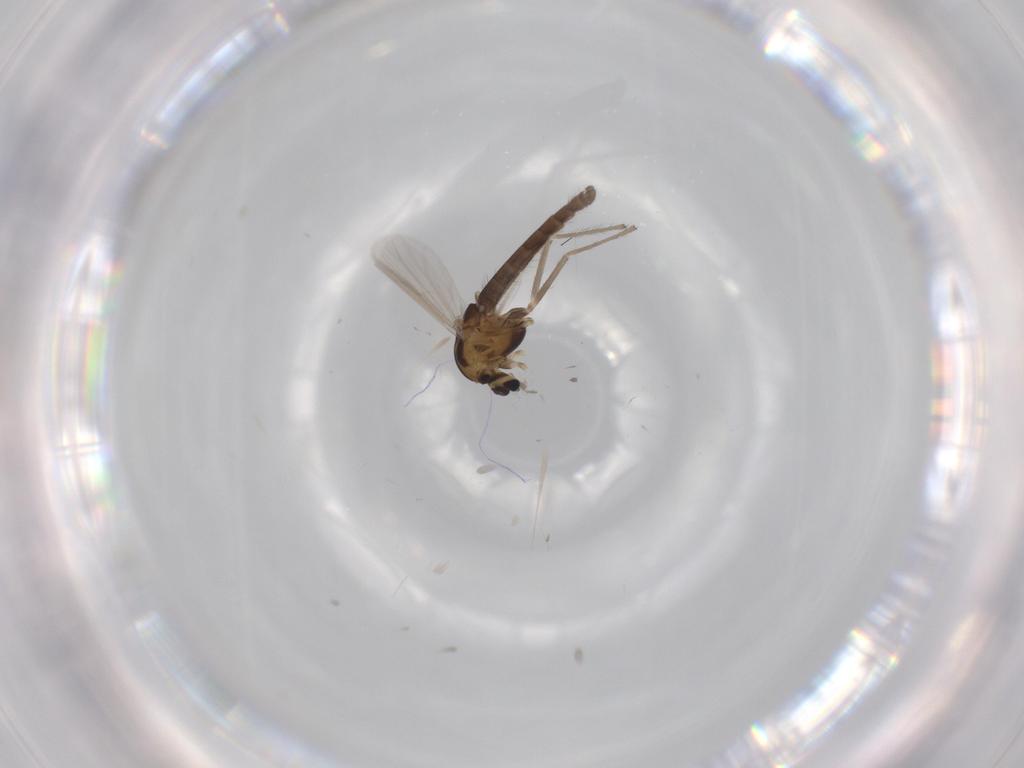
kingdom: Animalia
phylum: Arthropoda
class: Insecta
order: Diptera
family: Chironomidae
